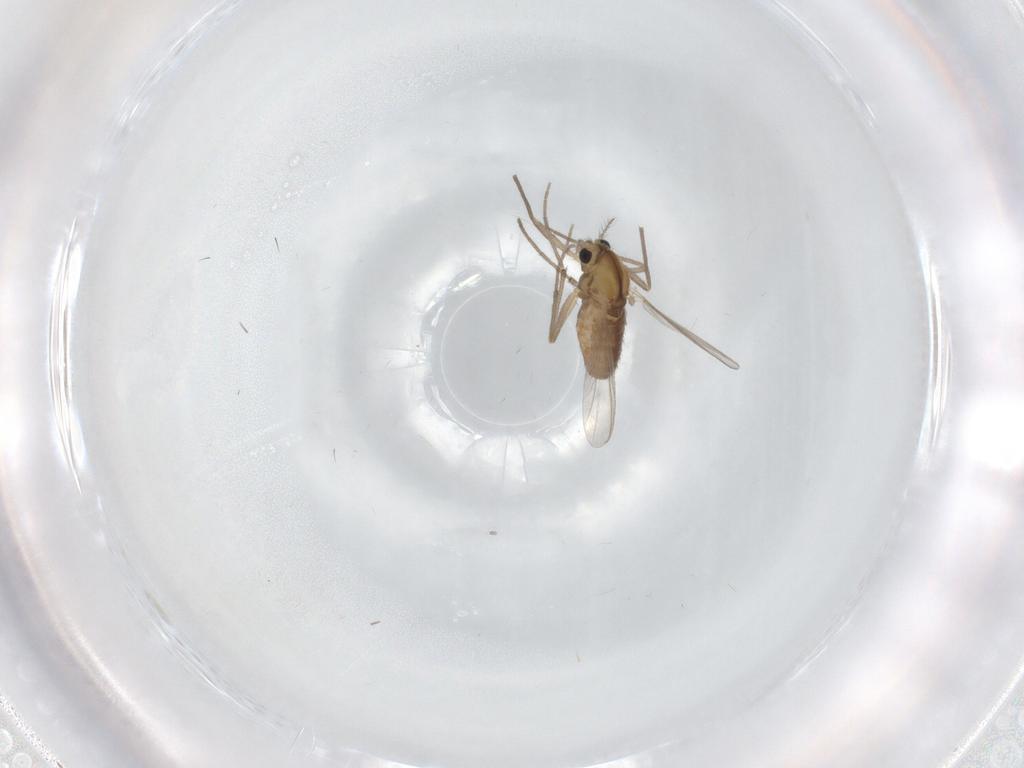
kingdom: Animalia
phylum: Arthropoda
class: Insecta
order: Diptera
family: Chironomidae
